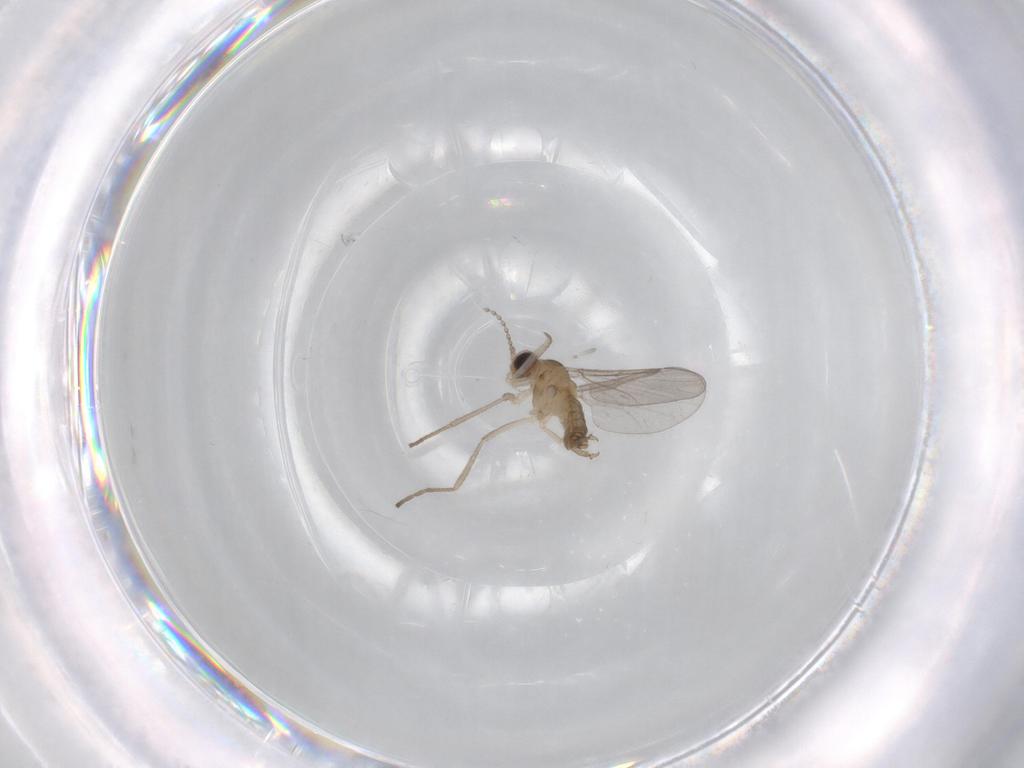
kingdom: Animalia
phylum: Arthropoda
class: Insecta
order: Diptera
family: Cecidomyiidae
